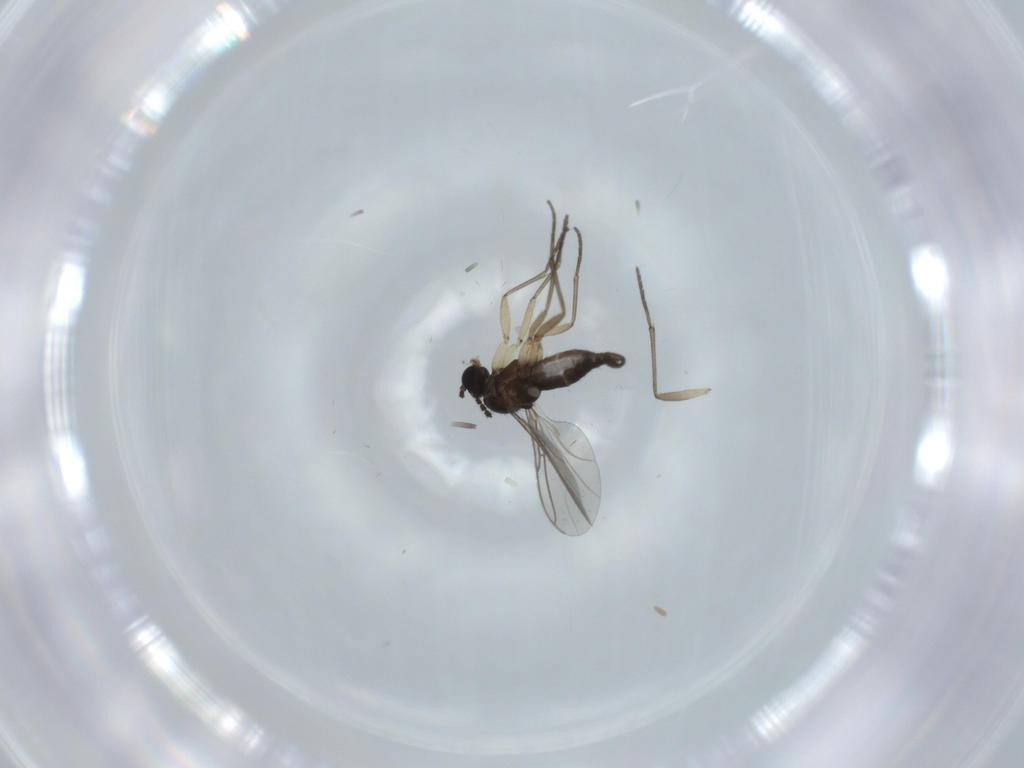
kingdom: Animalia
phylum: Arthropoda
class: Insecta
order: Diptera
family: Sciaridae
